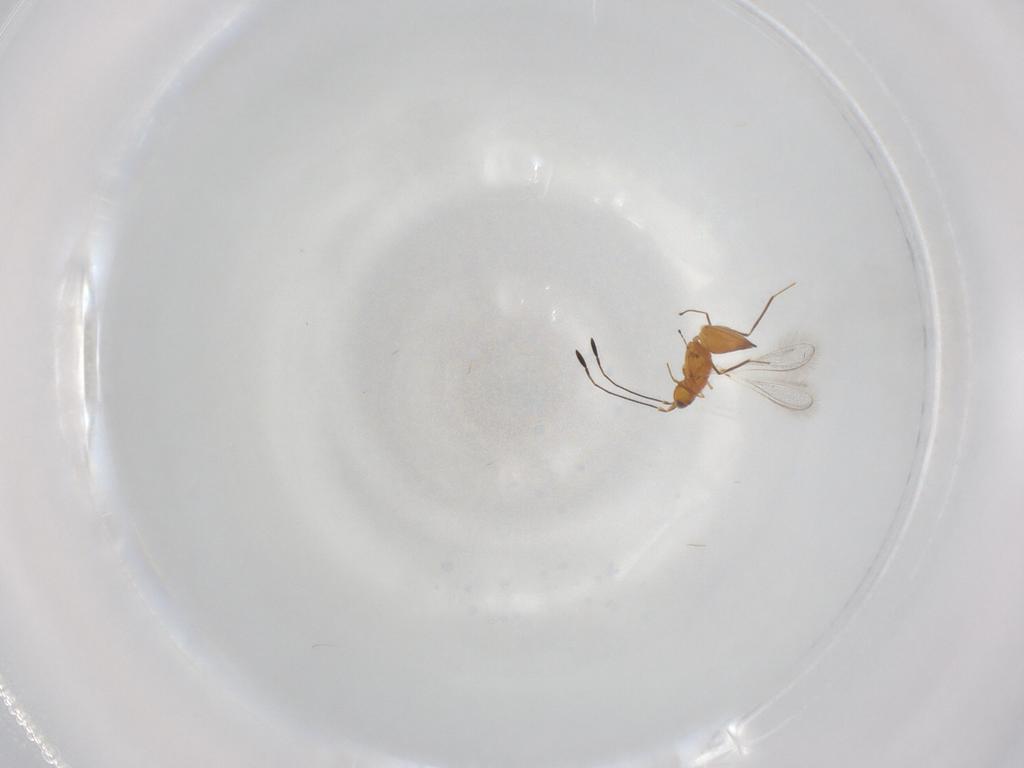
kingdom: Animalia
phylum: Arthropoda
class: Insecta
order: Hymenoptera
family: Mymaridae
